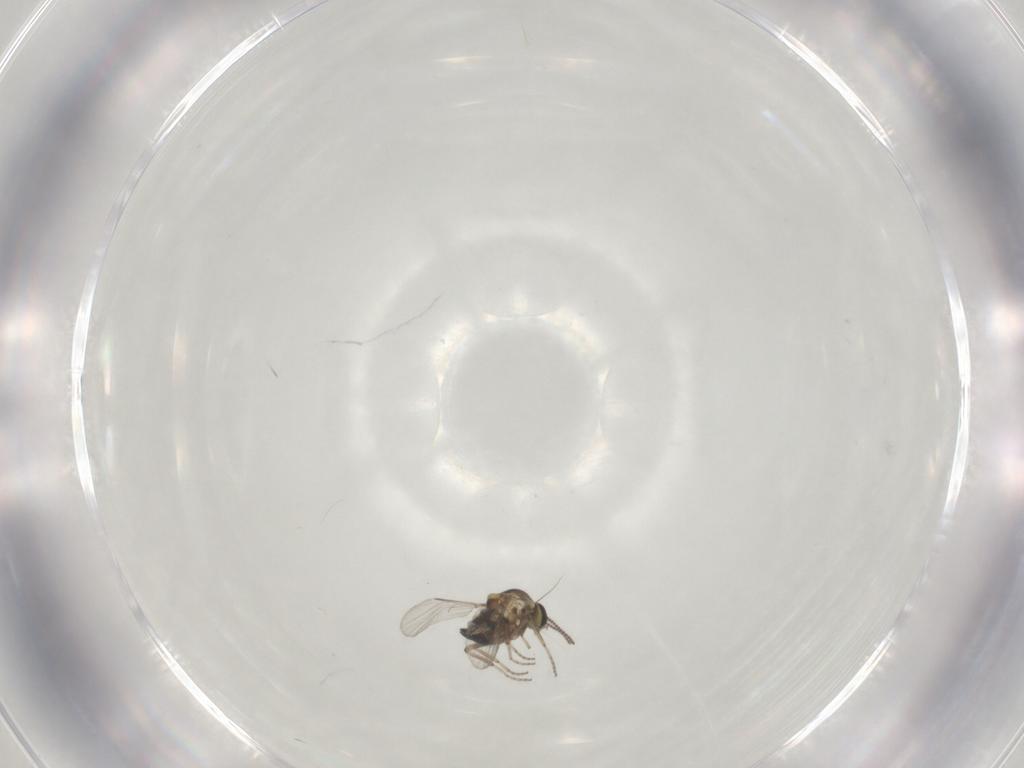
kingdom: Animalia
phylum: Arthropoda
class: Insecta
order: Diptera
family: Ceratopogonidae
